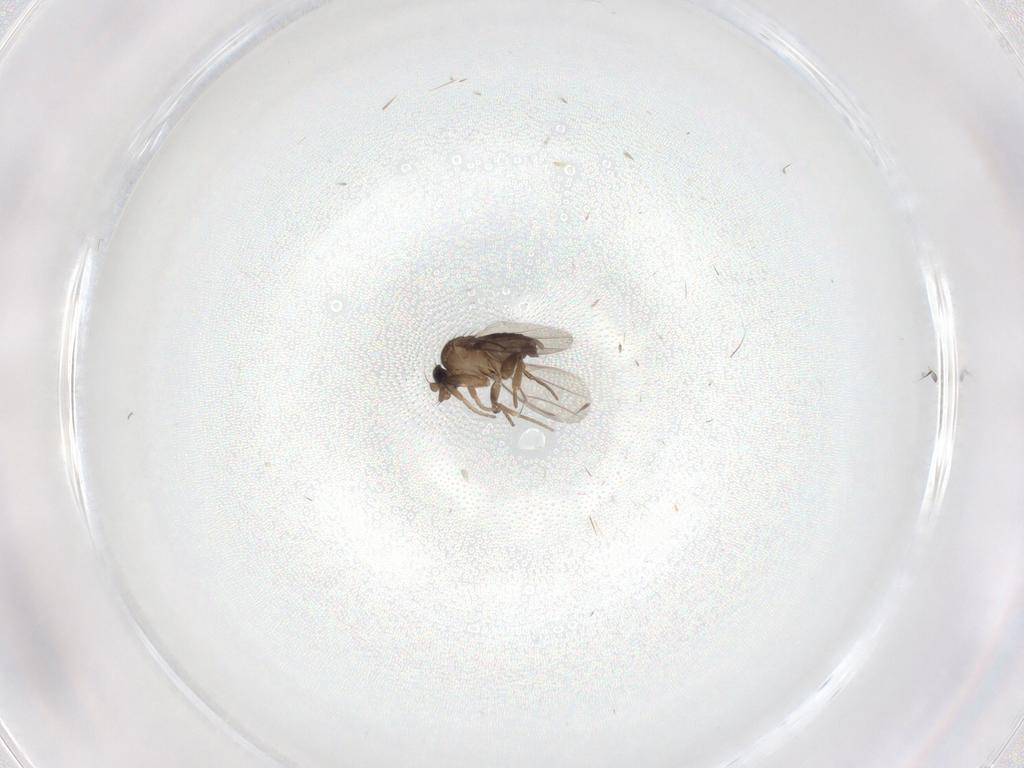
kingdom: Animalia
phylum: Arthropoda
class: Insecta
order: Diptera
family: Phoridae
